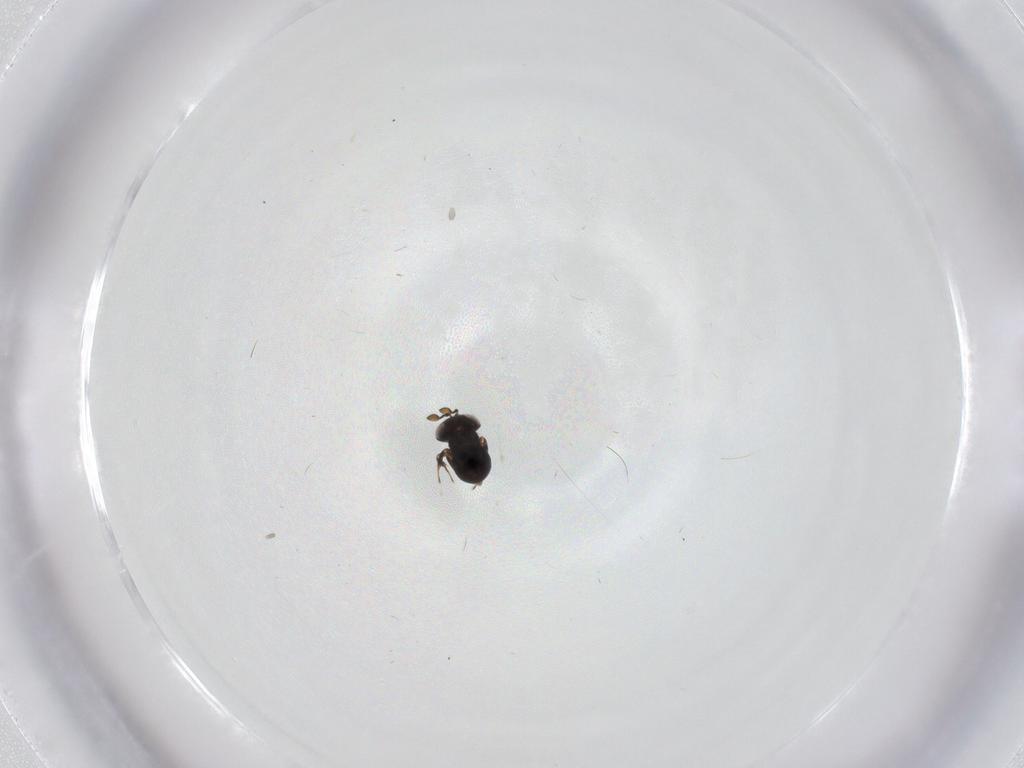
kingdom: Animalia
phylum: Arthropoda
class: Insecta
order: Hymenoptera
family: Scelionidae
